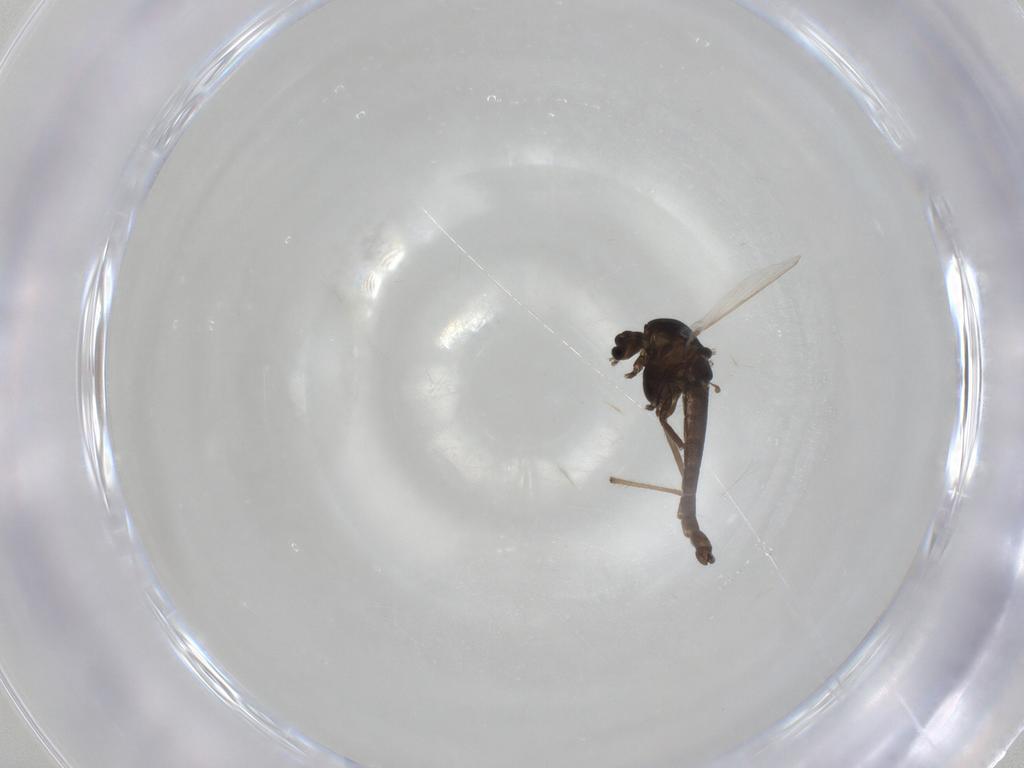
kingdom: Animalia
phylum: Arthropoda
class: Insecta
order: Diptera
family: Chironomidae
